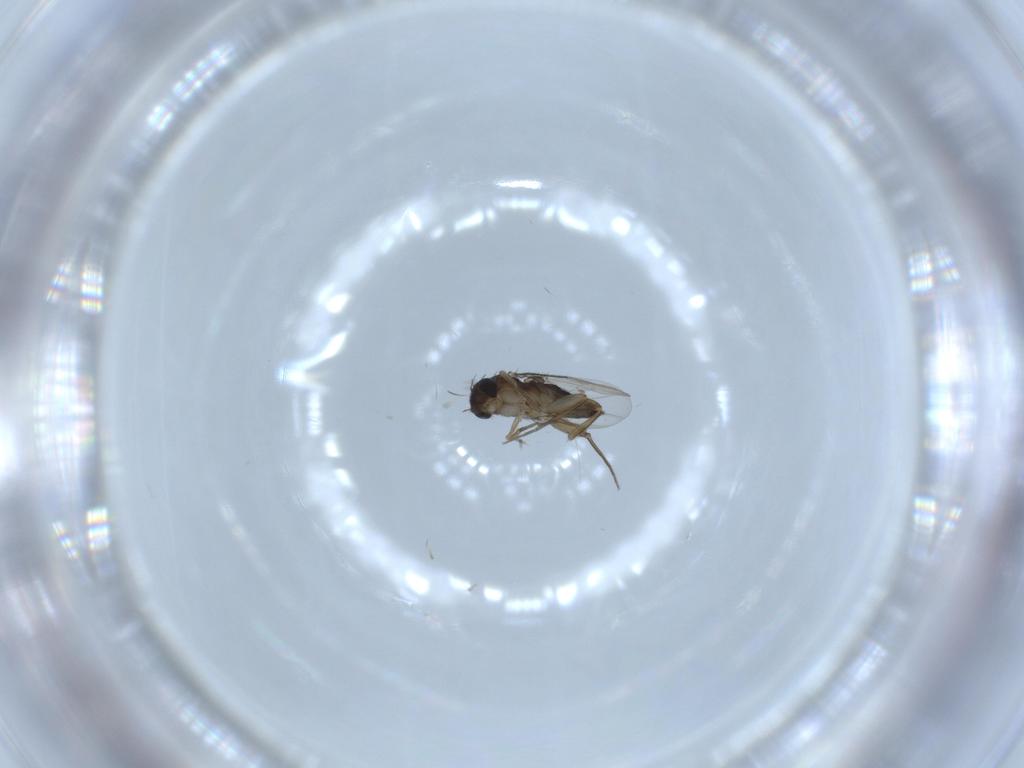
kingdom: Animalia
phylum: Arthropoda
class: Insecta
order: Diptera
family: Phoridae
